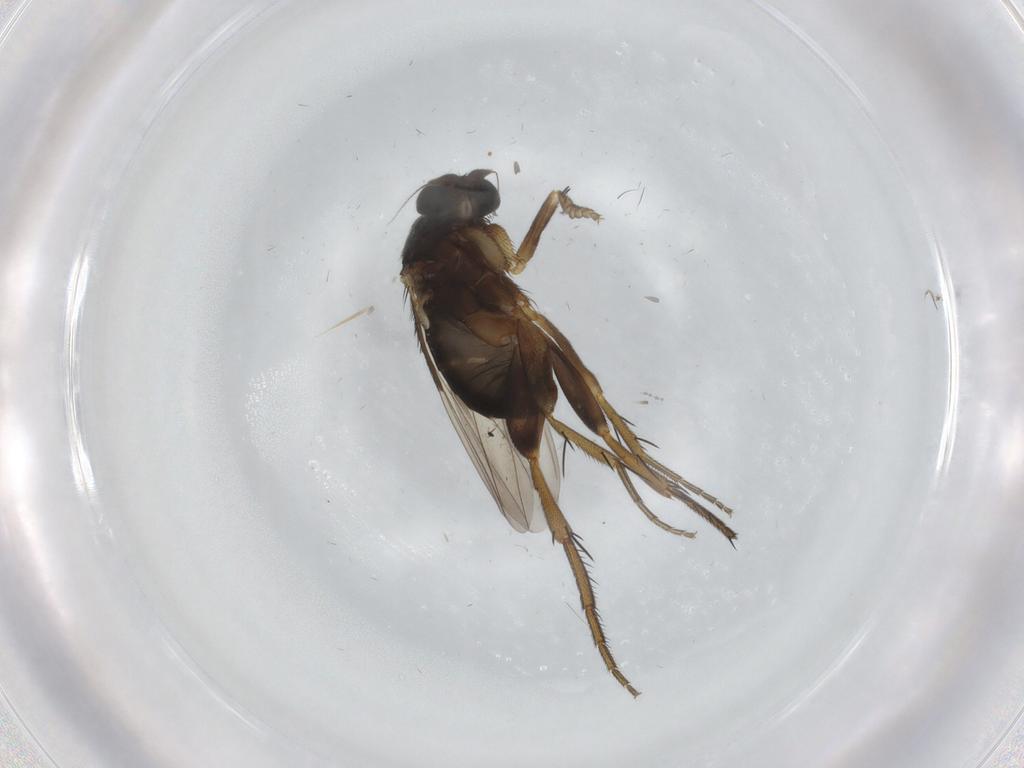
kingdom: Animalia
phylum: Arthropoda
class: Insecta
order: Diptera
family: Phoridae
